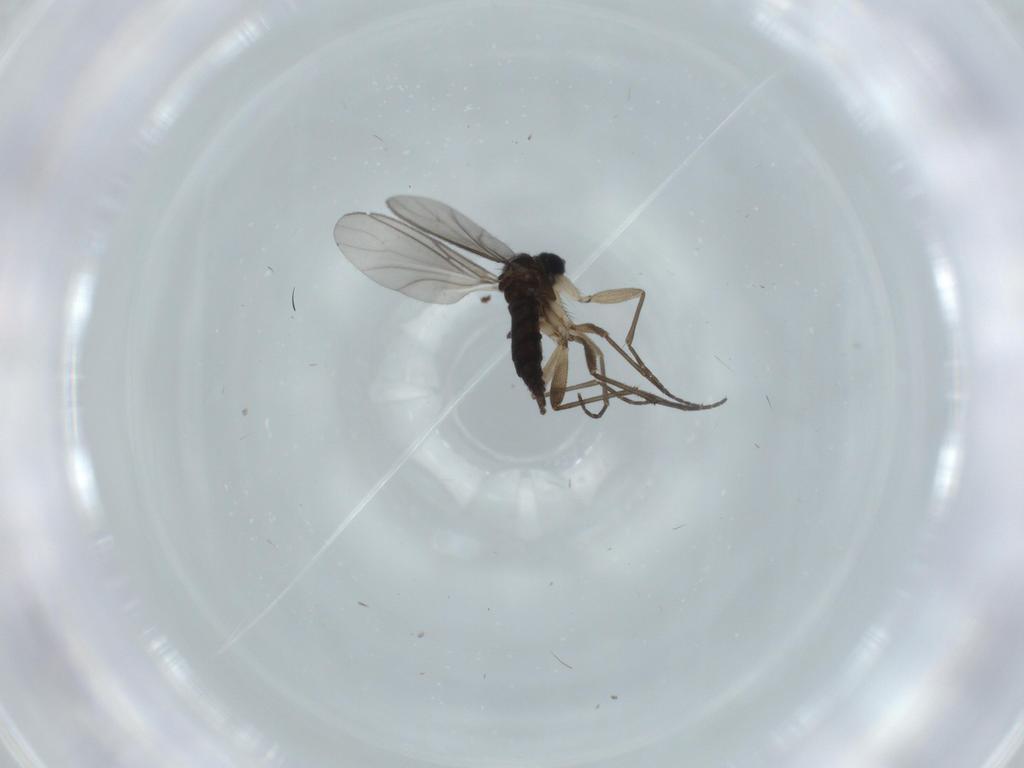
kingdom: Animalia
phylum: Arthropoda
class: Insecta
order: Diptera
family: Sciaridae
